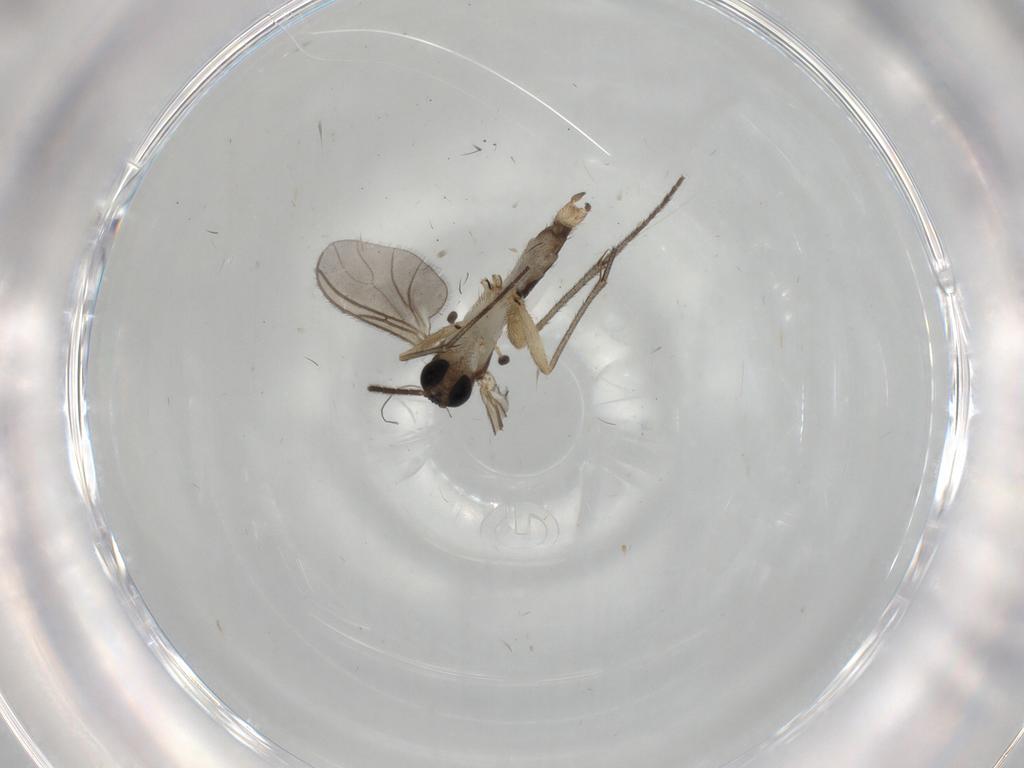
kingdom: Animalia
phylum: Arthropoda
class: Insecta
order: Diptera
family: Sciaridae
